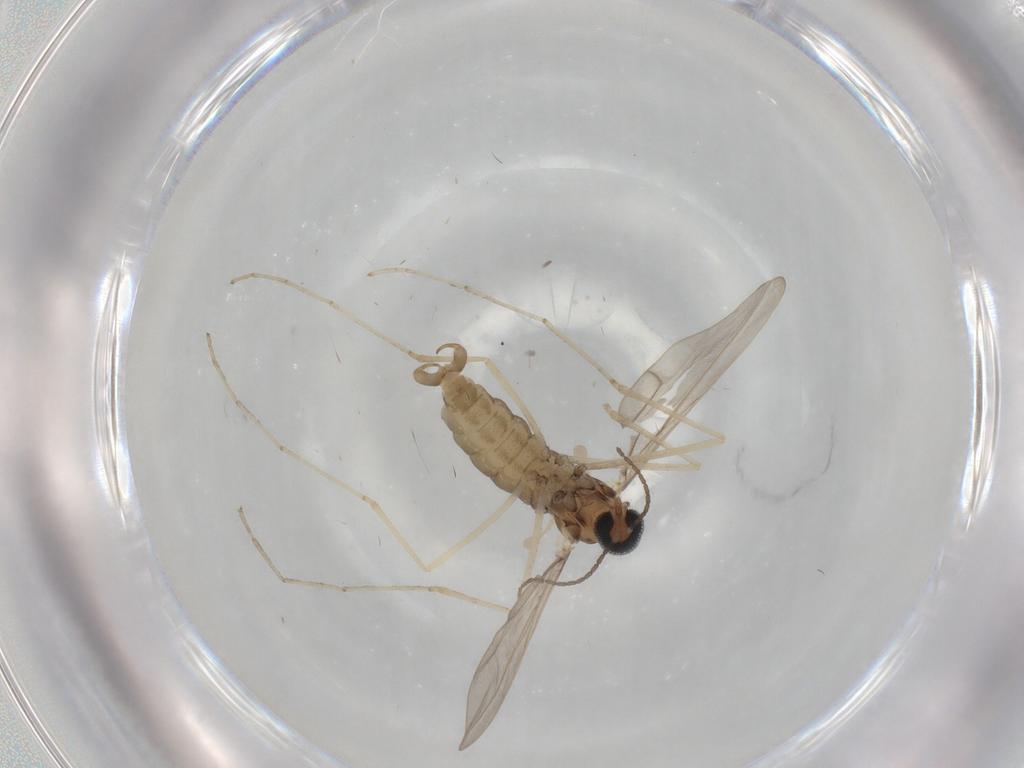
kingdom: Animalia
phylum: Arthropoda
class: Insecta
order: Diptera
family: Cecidomyiidae
